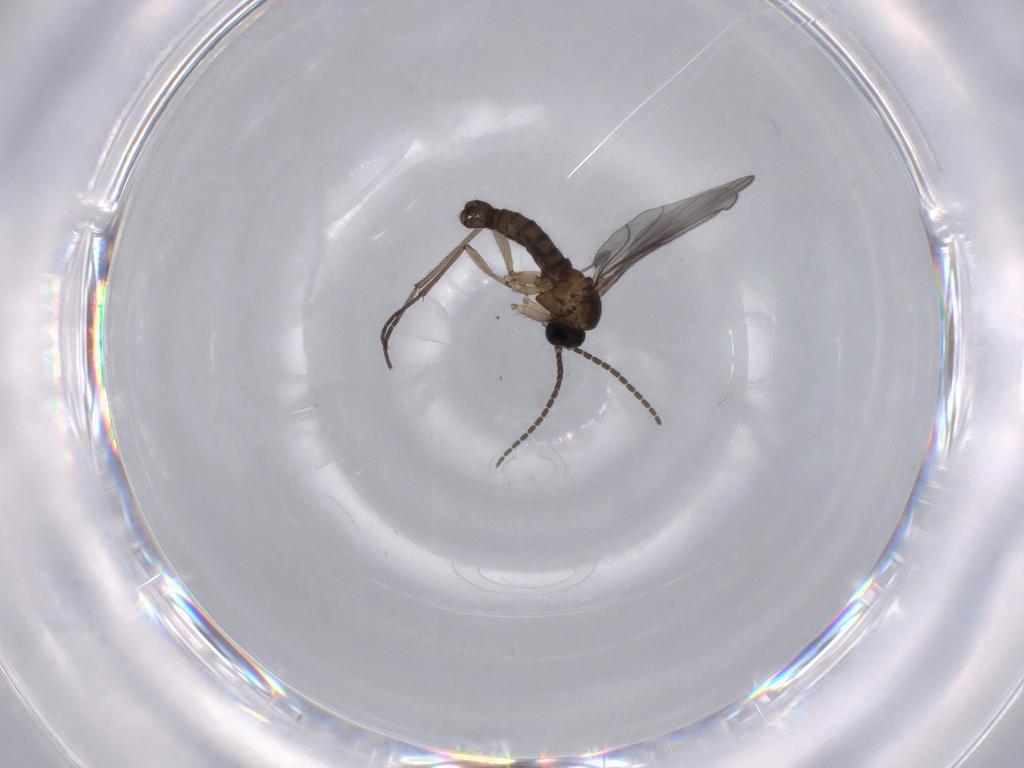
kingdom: Animalia
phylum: Arthropoda
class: Insecta
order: Diptera
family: Sciaridae
